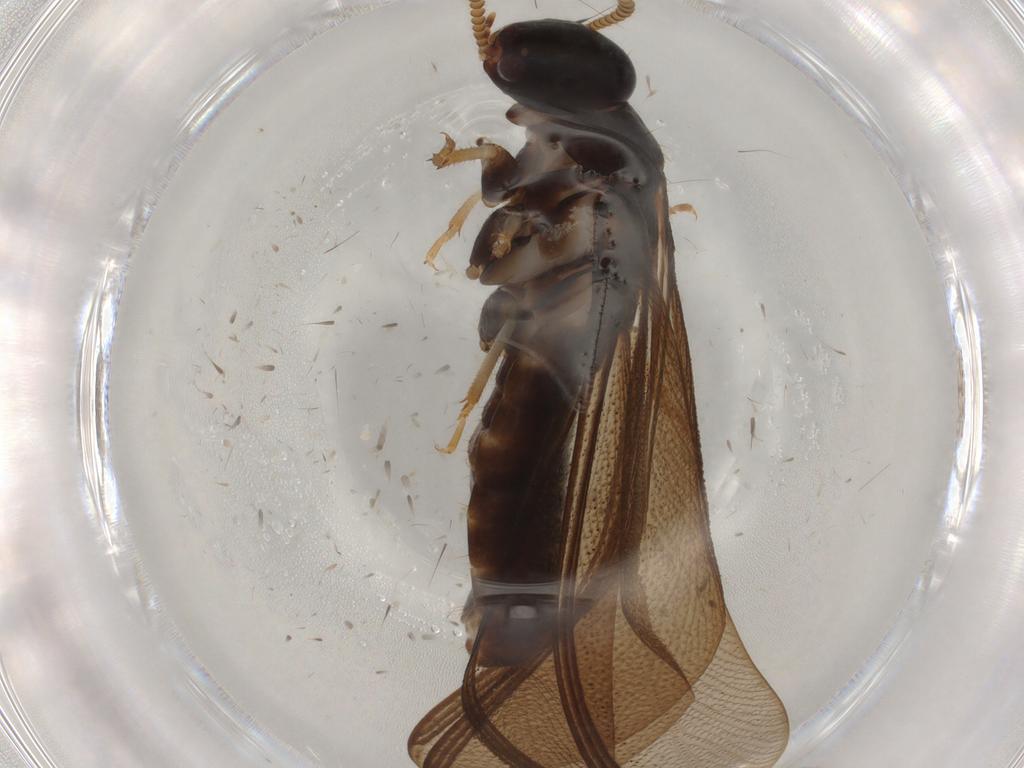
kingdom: Animalia
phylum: Arthropoda
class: Insecta
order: Blattodea
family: Kalotermitidae
